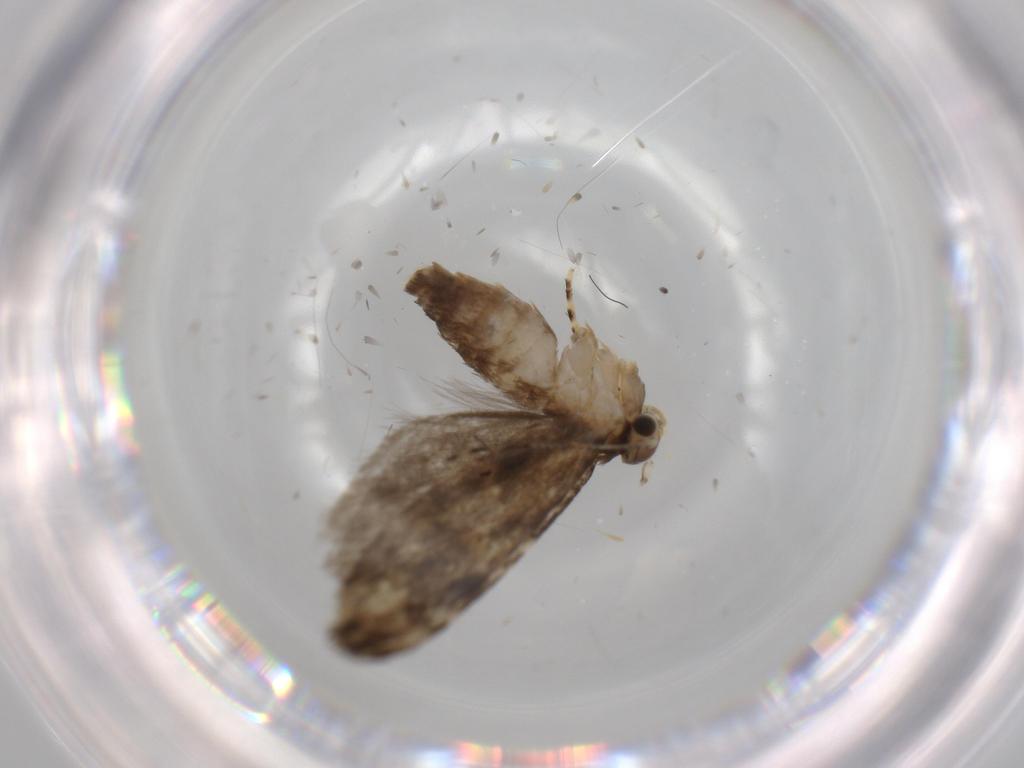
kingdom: Animalia
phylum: Arthropoda
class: Insecta
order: Lepidoptera
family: Tineidae
